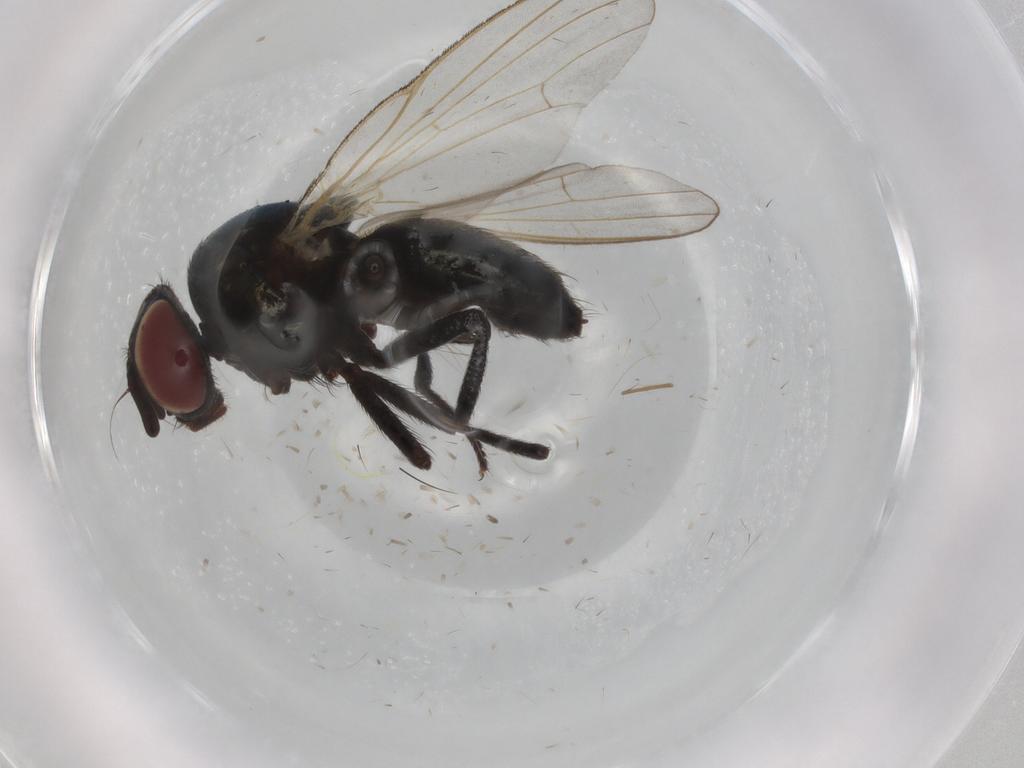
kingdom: Animalia
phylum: Arthropoda
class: Insecta
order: Diptera
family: Lonchaeidae
